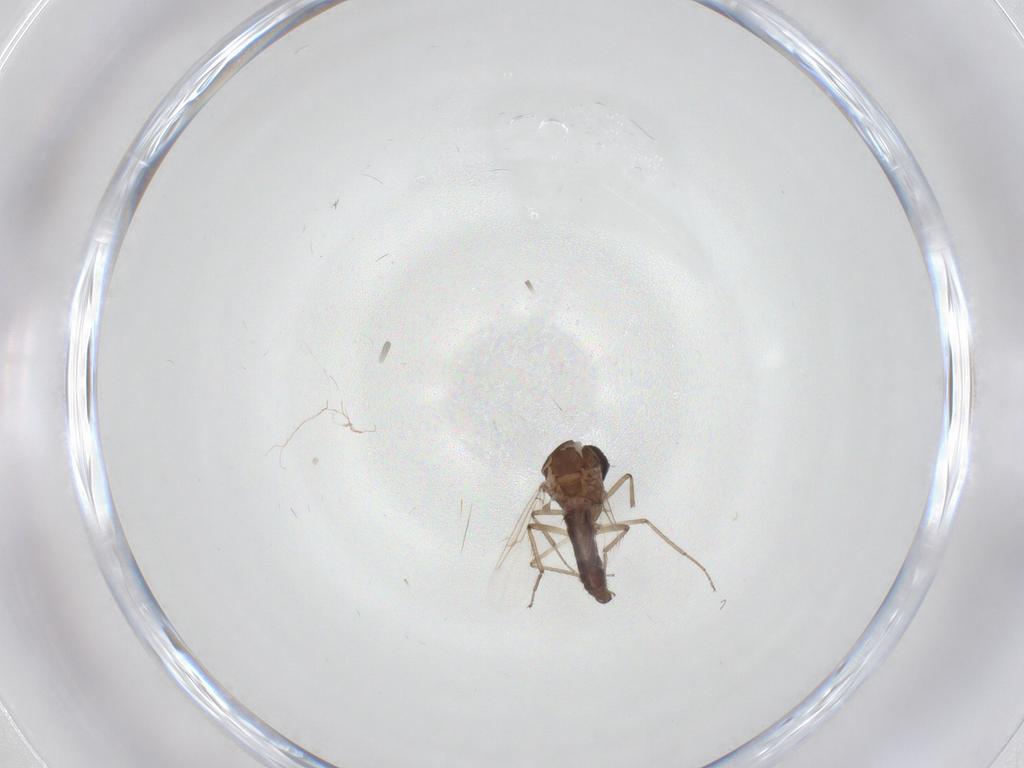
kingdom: Animalia
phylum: Arthropoda
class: Insecta
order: Diptera
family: Ceratopogonidae
